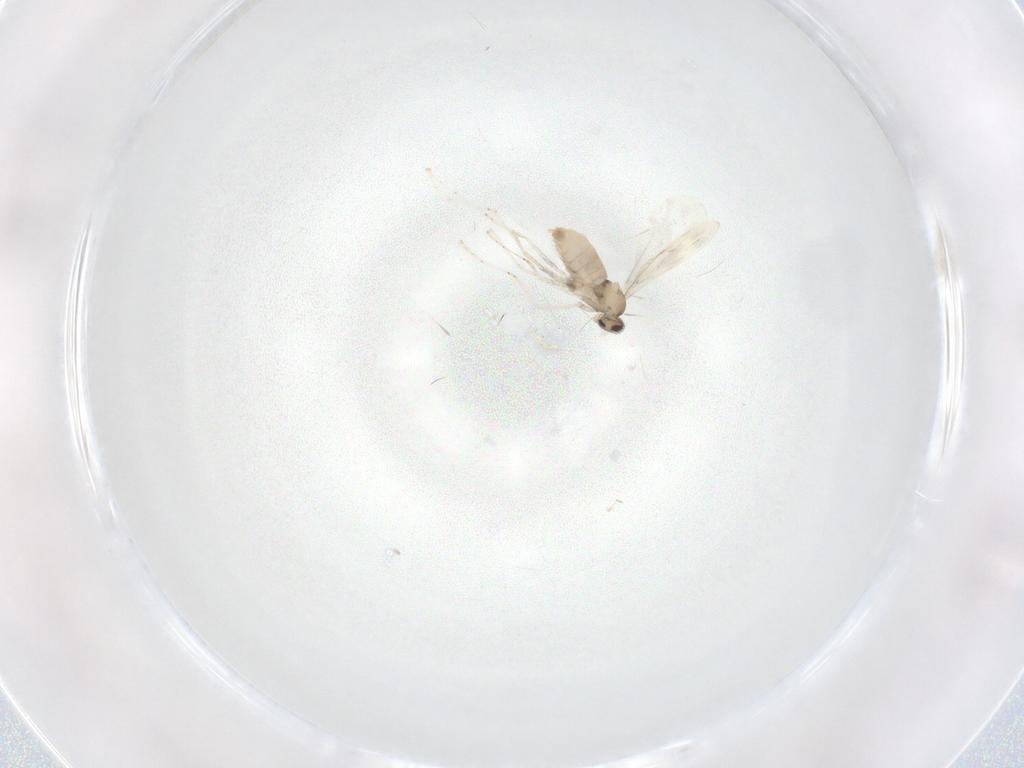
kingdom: Animalia
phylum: Arthropoda
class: Insecta
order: Diptera
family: Cecidomyiidae
